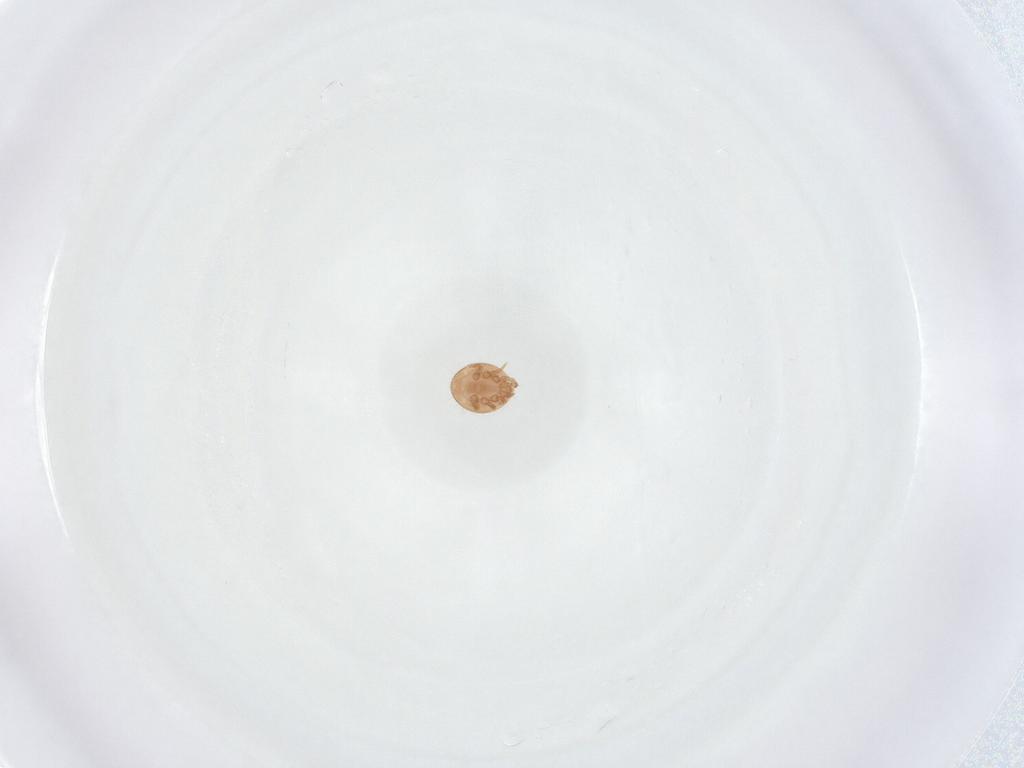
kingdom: Animalia
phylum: Arthropoda
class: Arachnida
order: Mesostigmata
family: Trematuridae
